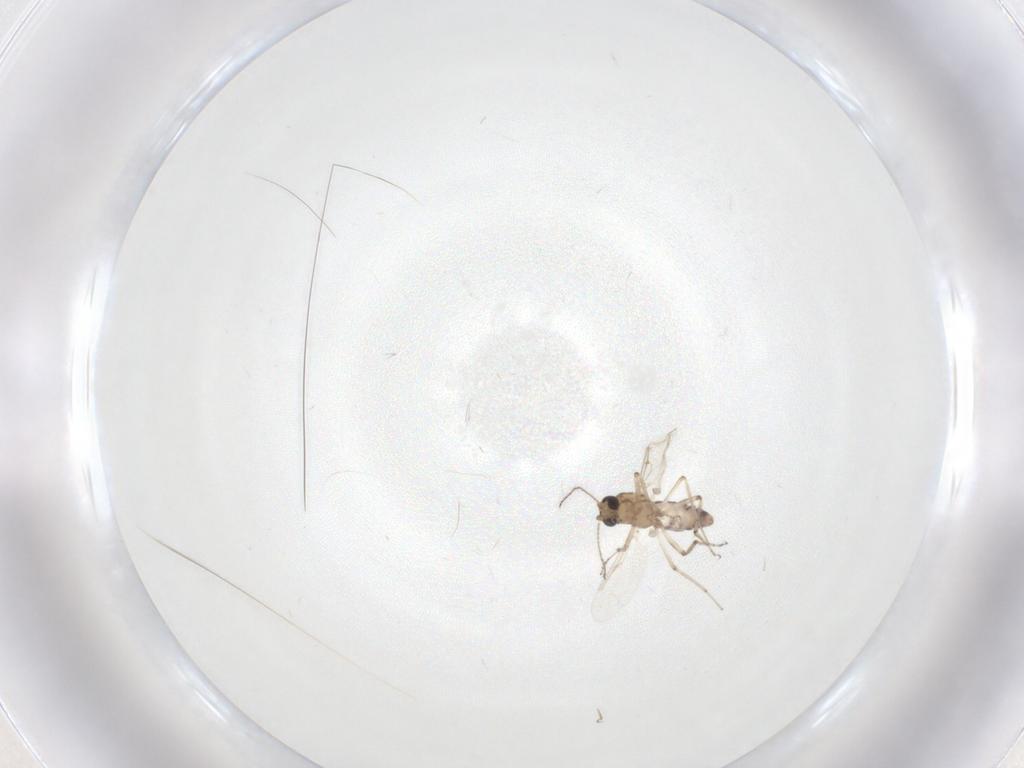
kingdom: Animalia
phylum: Arthropoda
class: Insecta
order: Diptera
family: Ceratopogonidae
